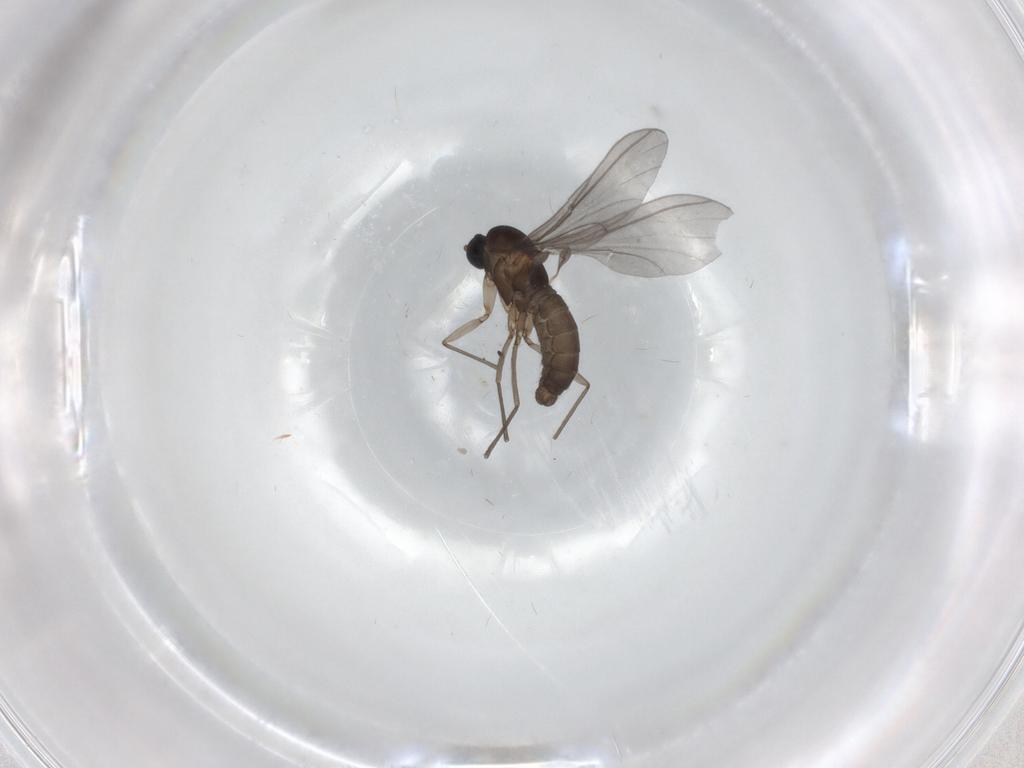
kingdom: Animalia
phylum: Arthropoda
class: Insecta
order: Diptera
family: Sciaridae
